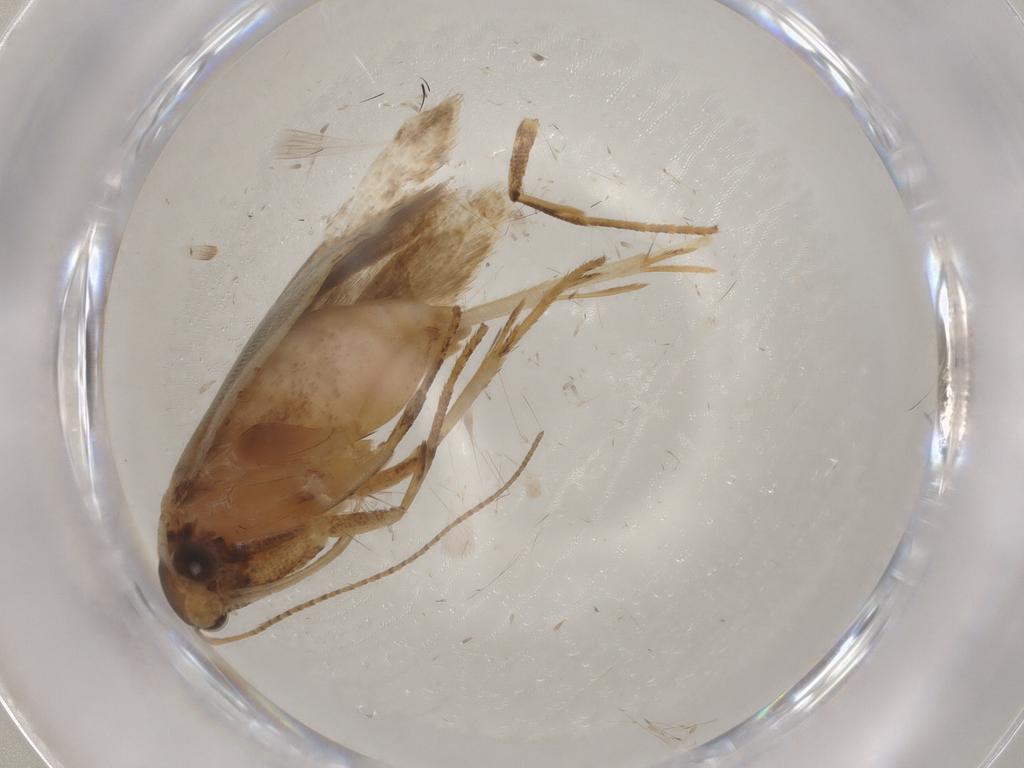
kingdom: Animalia
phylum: Arthropoda
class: Insecta
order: Lepidoptera
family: Gelechiidae
